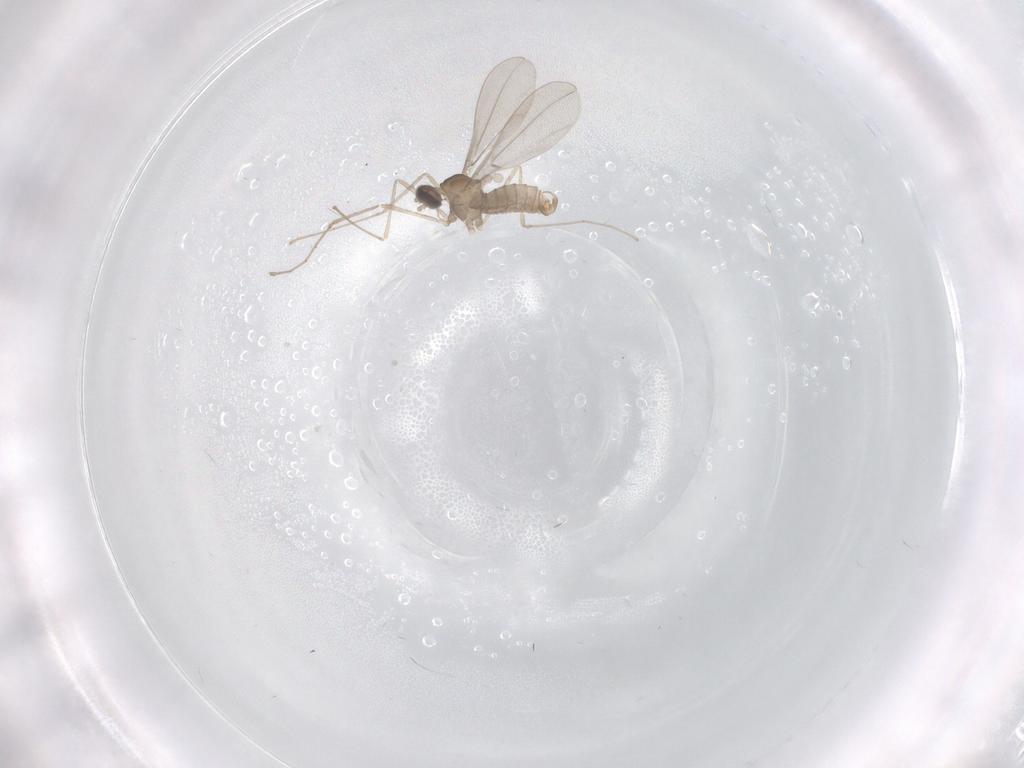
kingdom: Animalia
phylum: Arthropoda
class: Insecta
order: Diptera
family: Cecidomyiidae
